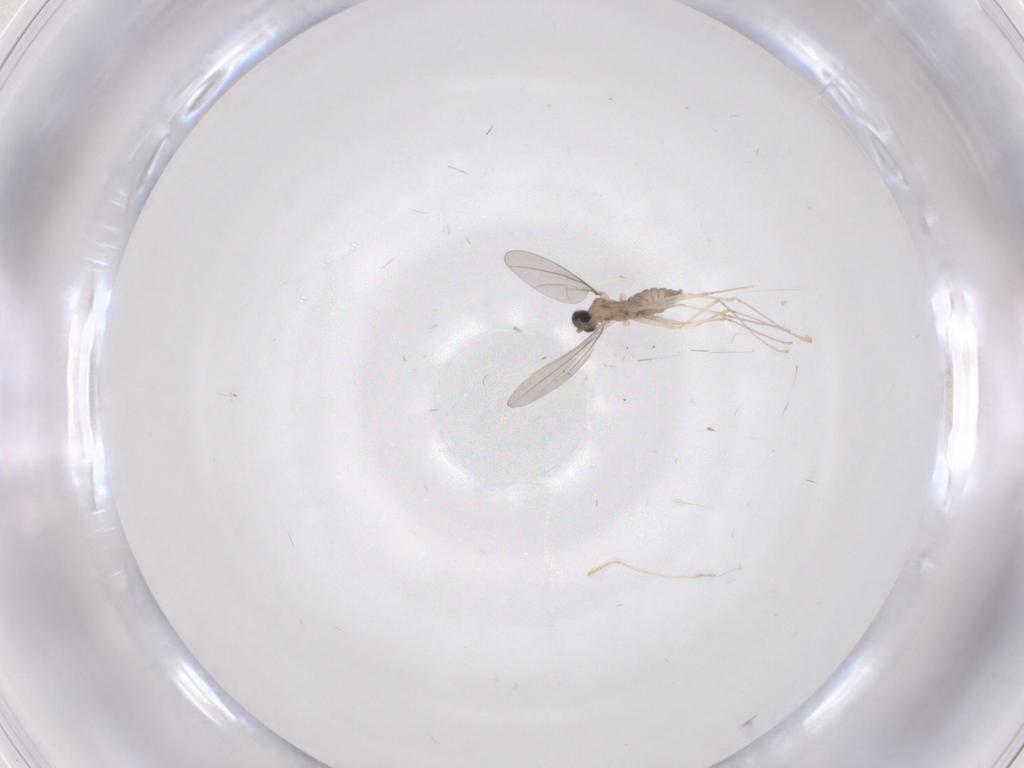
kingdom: Animalia
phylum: Arthropoda
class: Insecta
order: Diptera
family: Cecidomyiidae
